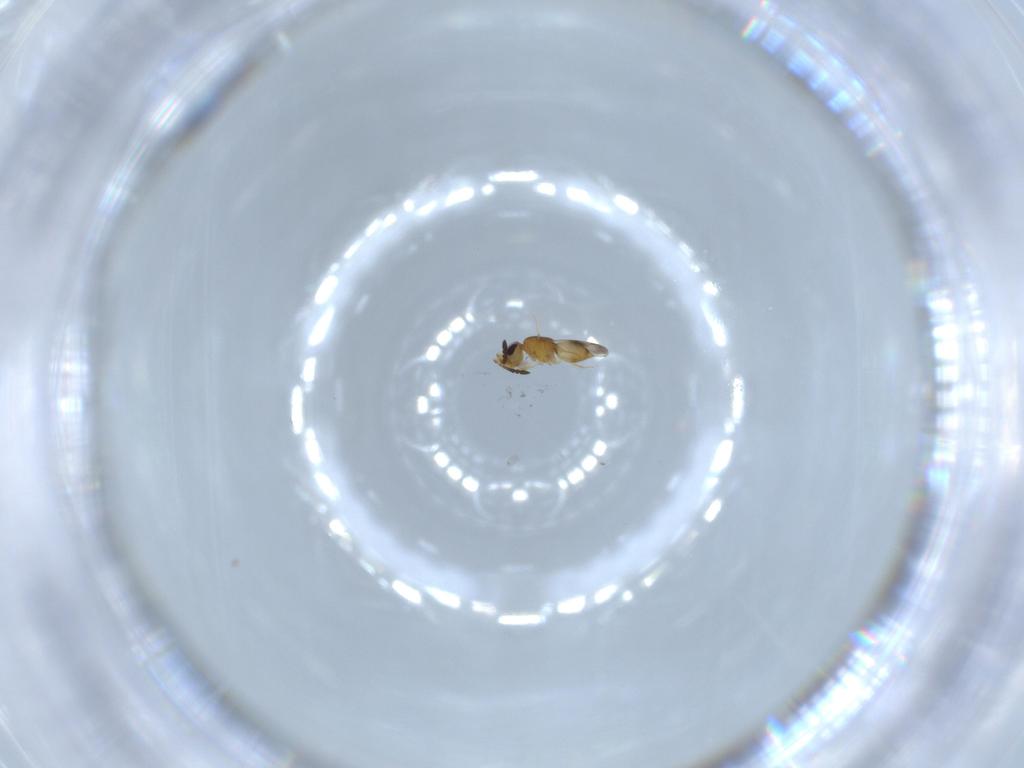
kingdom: Animalia
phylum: Arthropoda
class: Insecta
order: Hymenoptera
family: Ceraphronidae
